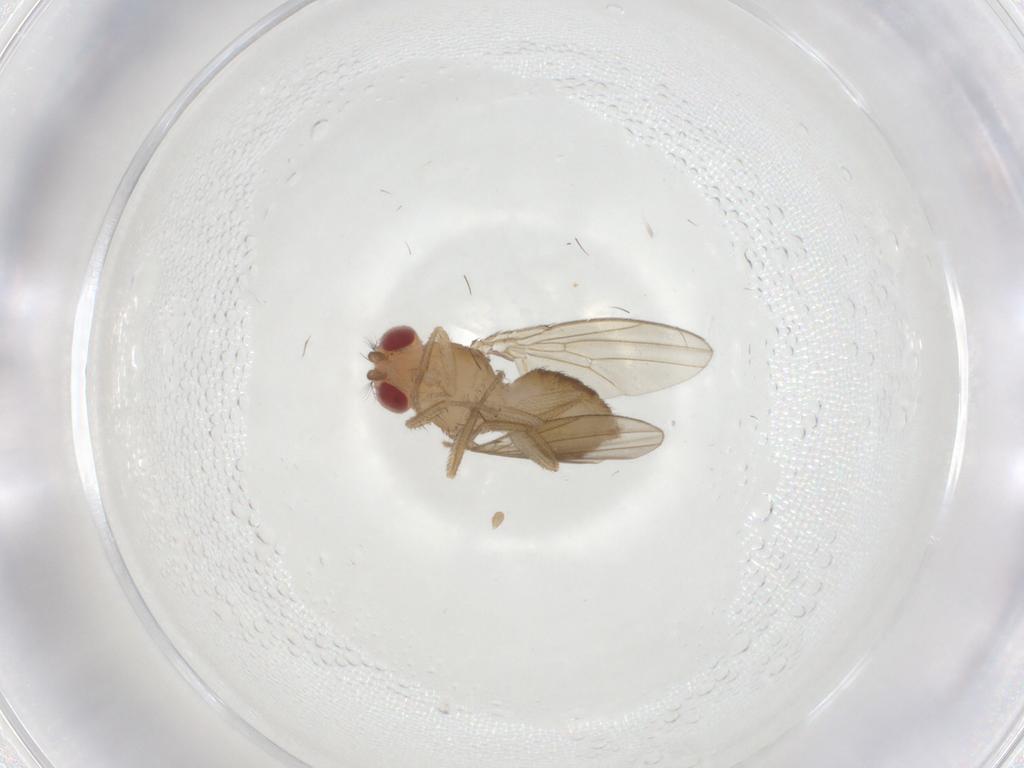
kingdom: Animalia
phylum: Arthropoda
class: Insecta
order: Diptera
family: Drosophilidae
